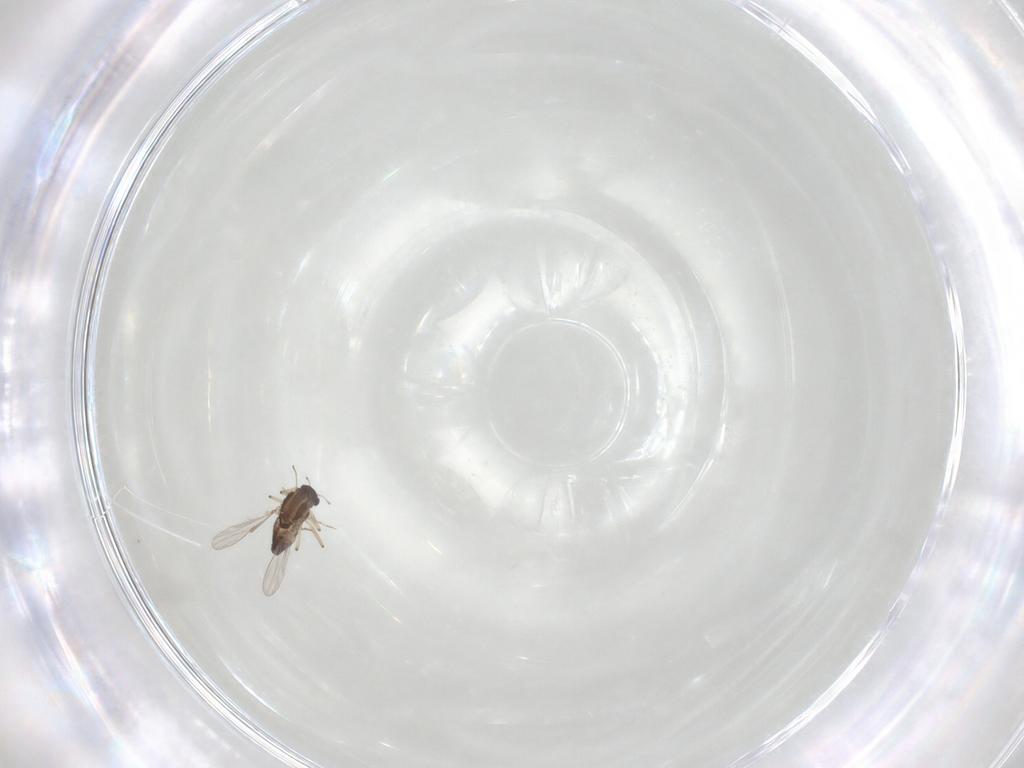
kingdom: Animalia
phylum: Arthropoda
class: Insecta
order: Diptera
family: Chironomidae
